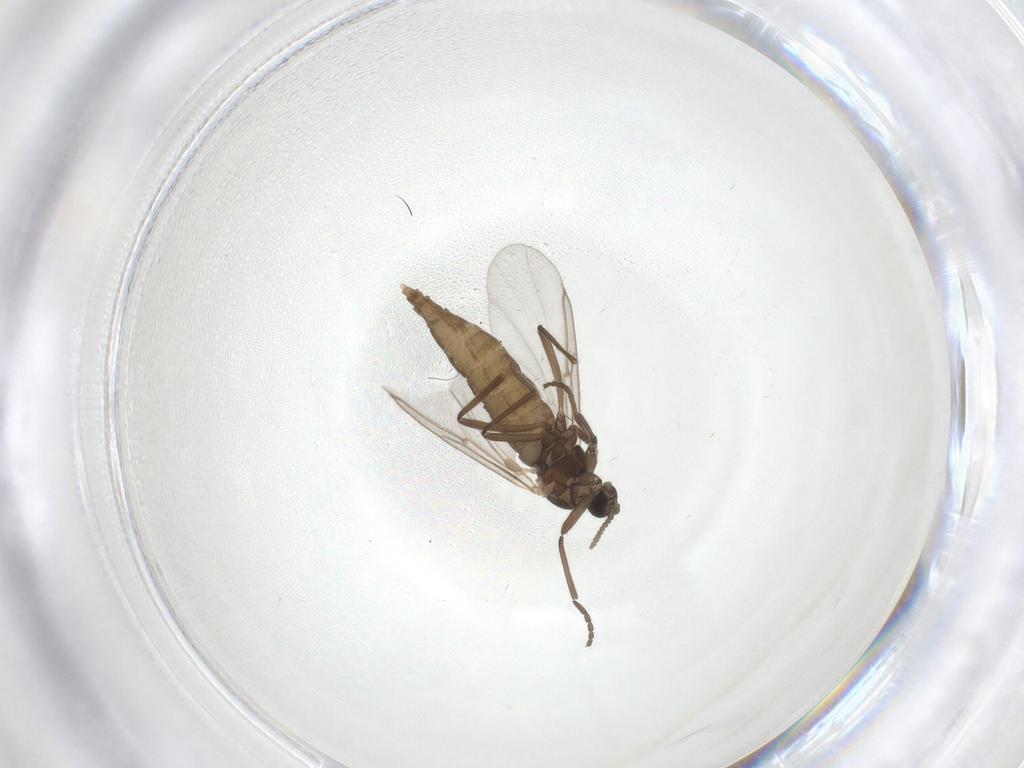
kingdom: Animalia
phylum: Arthropoda
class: Insecta
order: Diptera
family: Cecidomyiidae
